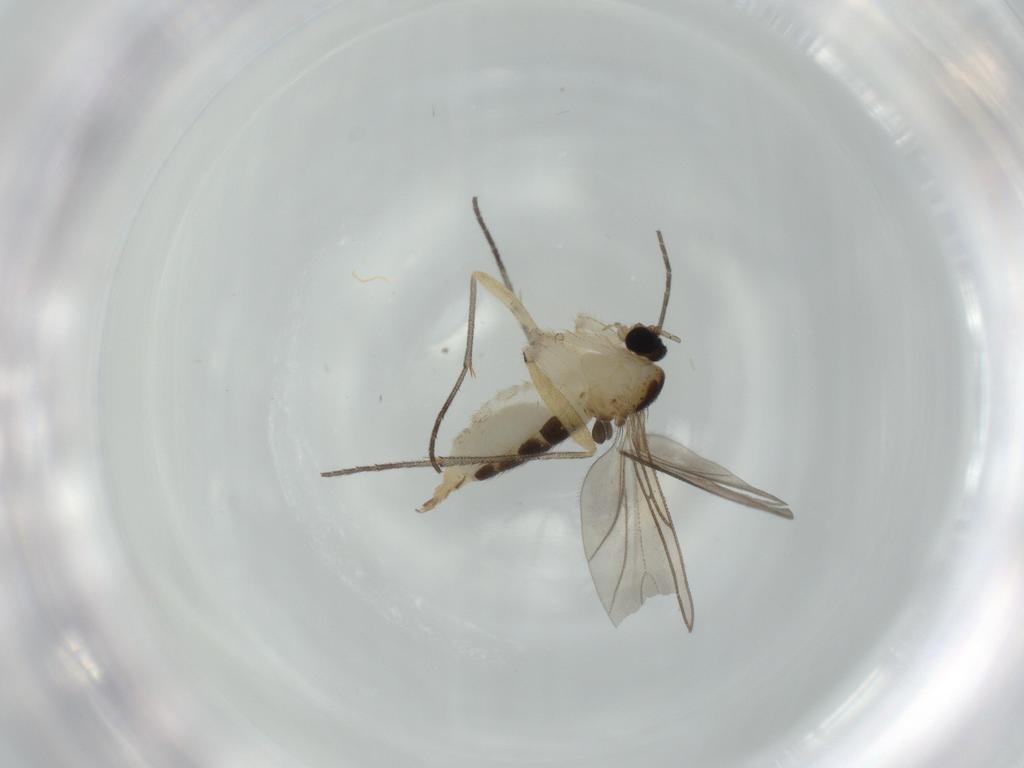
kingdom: Animalia
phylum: Arthropoda
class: Insecta
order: Diptera
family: Sciaridae
